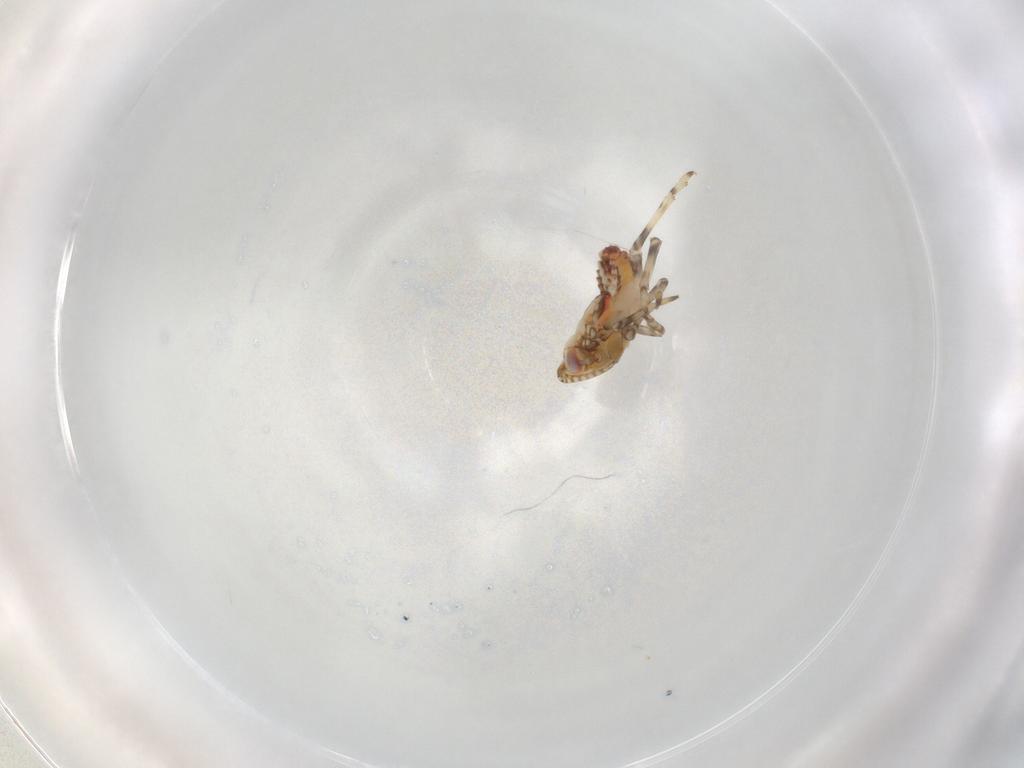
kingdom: Animalia
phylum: Arthropoda
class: Insecta
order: Hemiptera
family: Tropiduchidae
